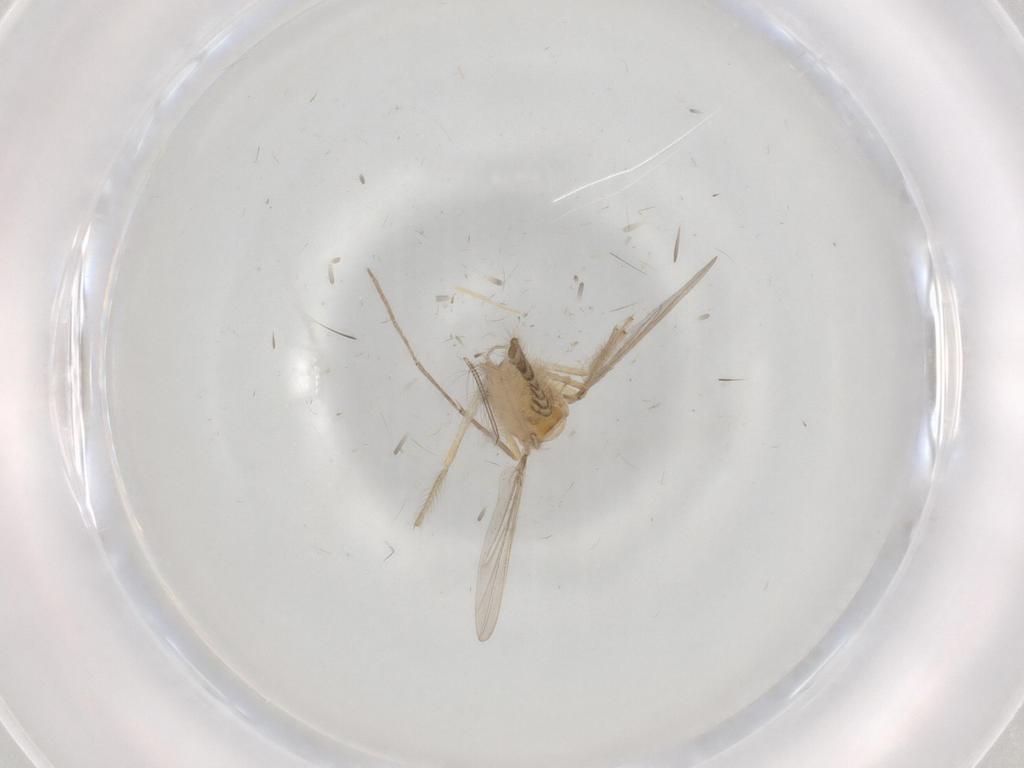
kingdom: Animalia
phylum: Arthropoda
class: Insecta
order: Diptera
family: Chironomidae
